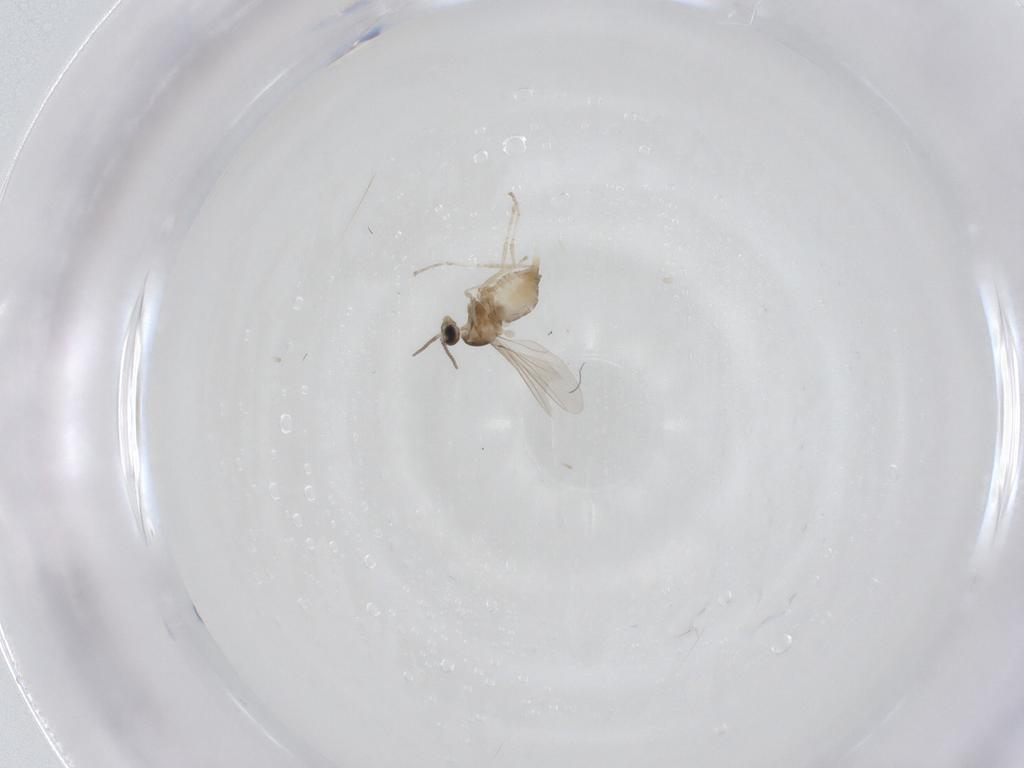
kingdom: Animalia
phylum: Arthropoda
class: Insecta
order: Diptera
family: Cecidomyiidae
